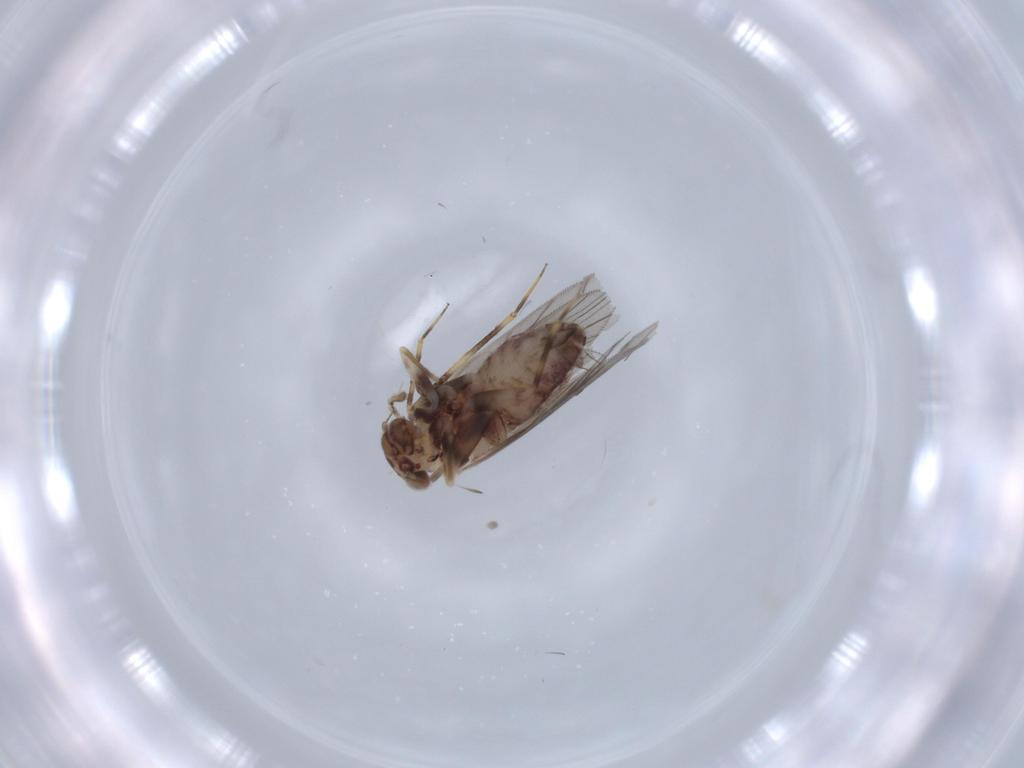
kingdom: Animalia
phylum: Arthropoda
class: Insecta
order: Psocodea
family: Lepidopsocidae
